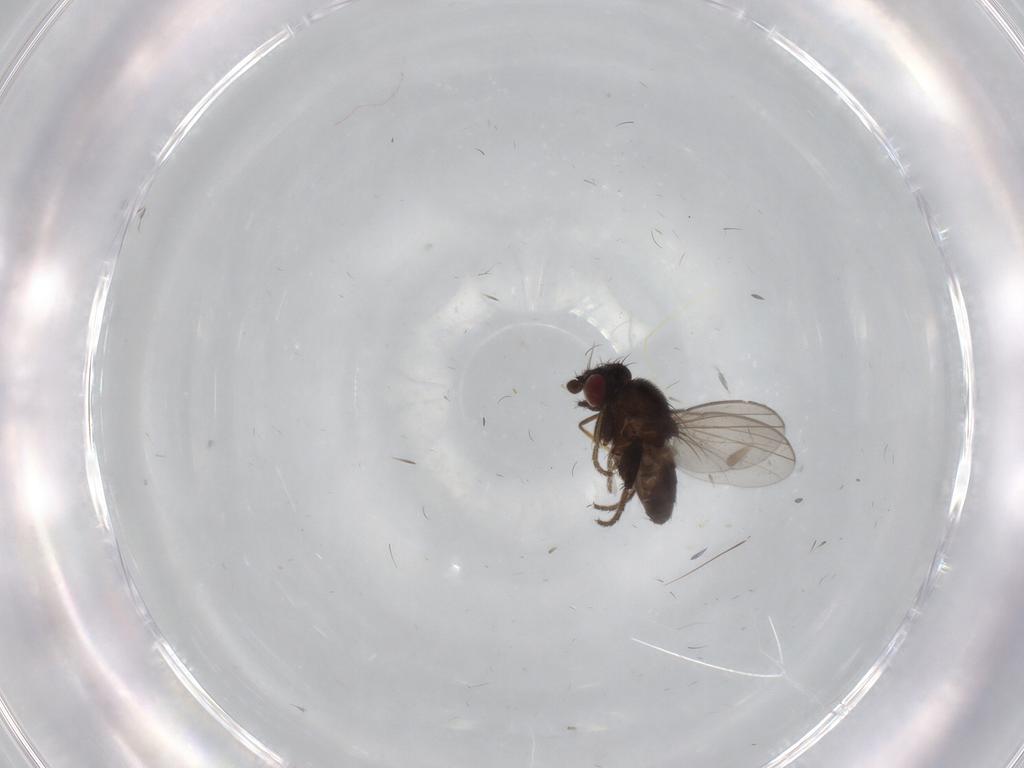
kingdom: Animalia
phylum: Arthropoda
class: Insecta
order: Diptera
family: Milichiidae
